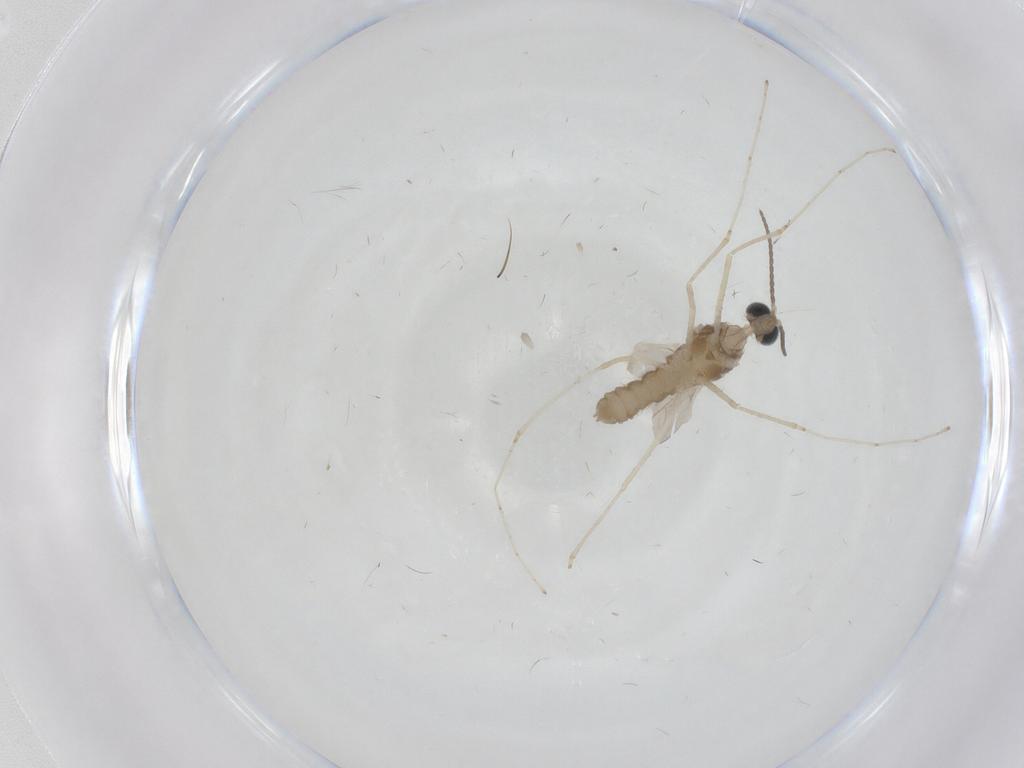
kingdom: Animalia
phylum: Arthropoda
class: Insecta
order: Diptera
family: Cecidomyiidae
